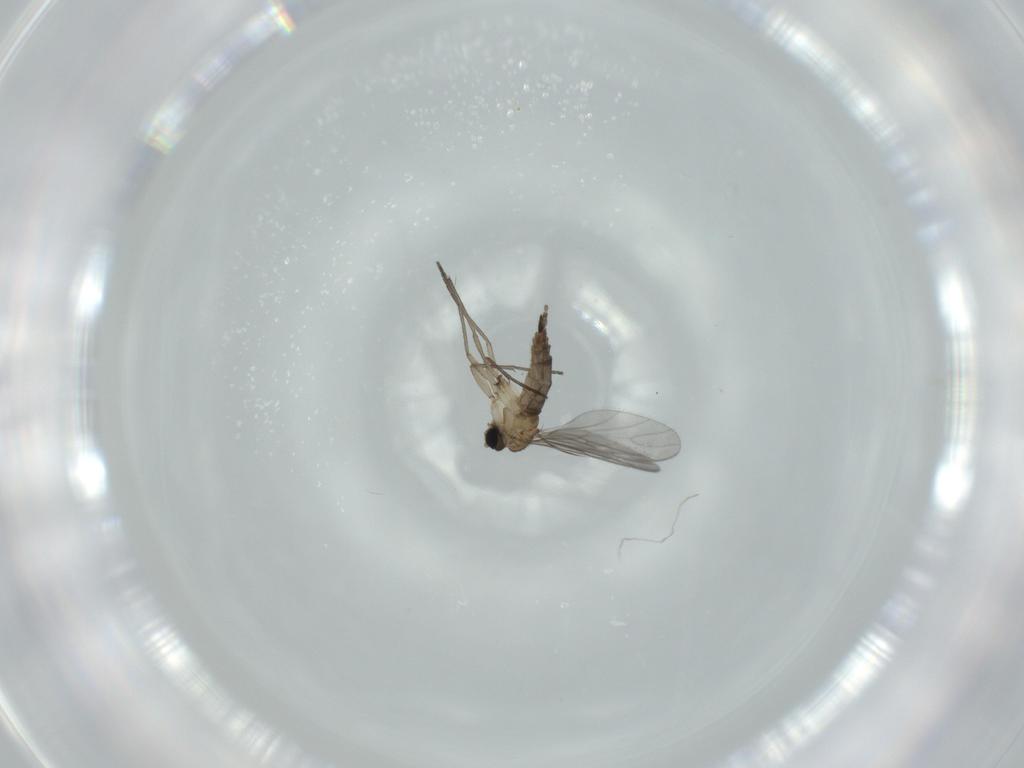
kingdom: Animalia
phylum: Arthropoda
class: Insecta
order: Diptera
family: Sciaridae
